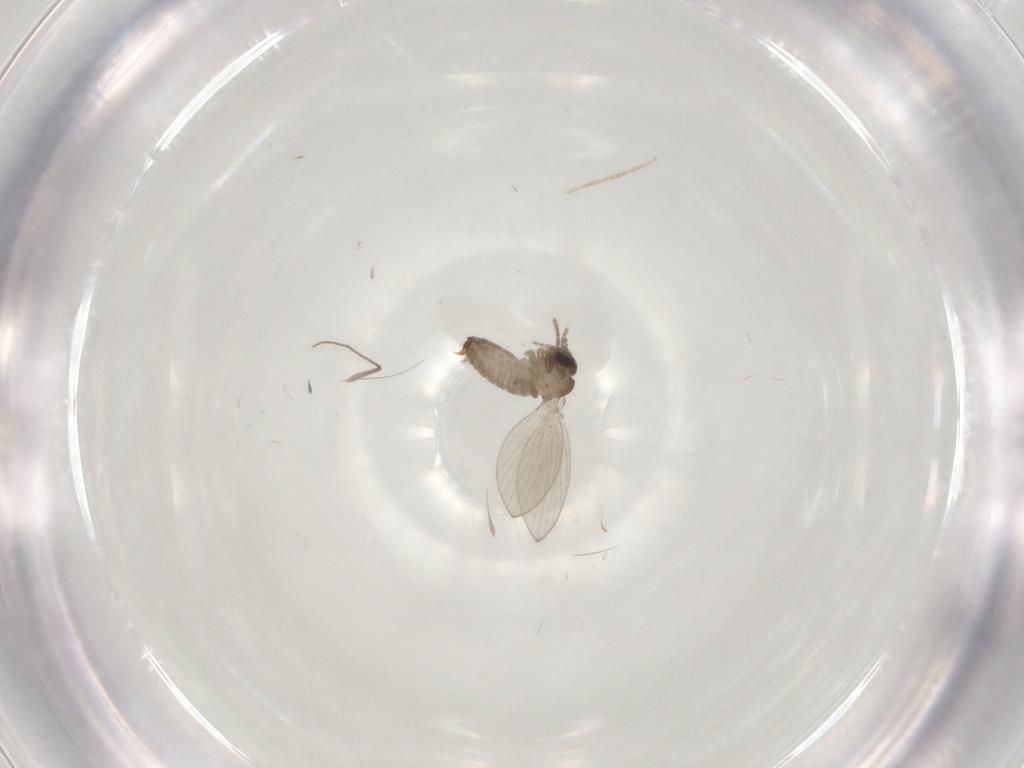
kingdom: Animalia
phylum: Arthropoda
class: Insecta
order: Diptera
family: Chironomidae
